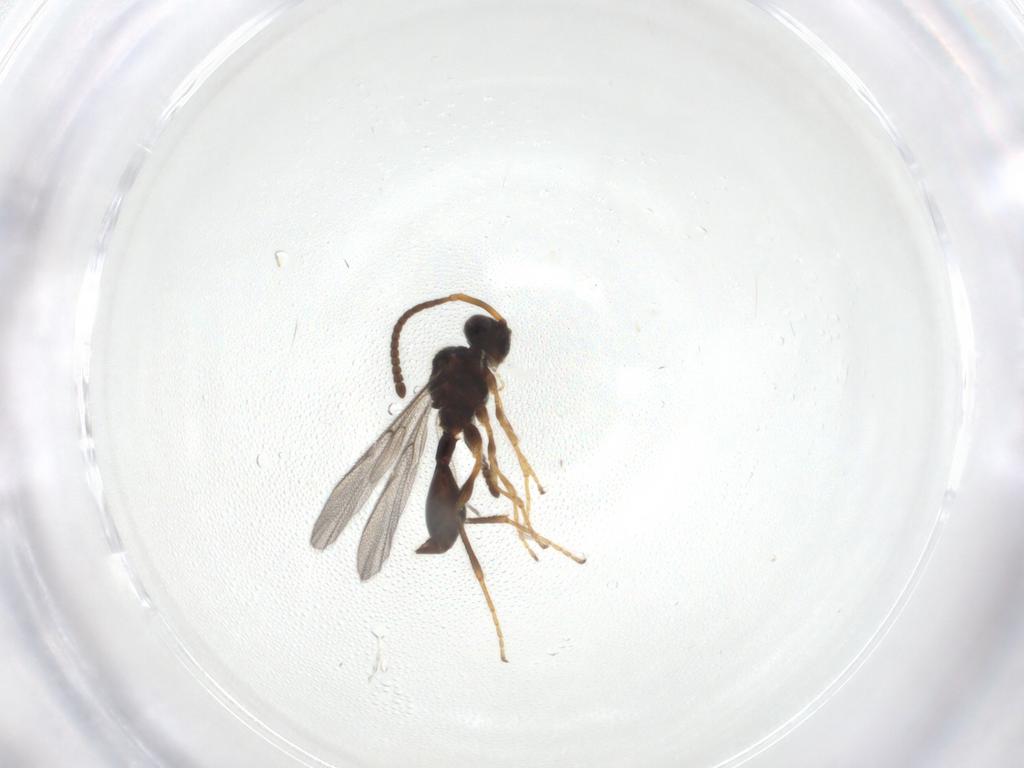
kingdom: Animalia
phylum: Arthropoda
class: Insecta
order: Hymenoptera
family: Diapriidae
